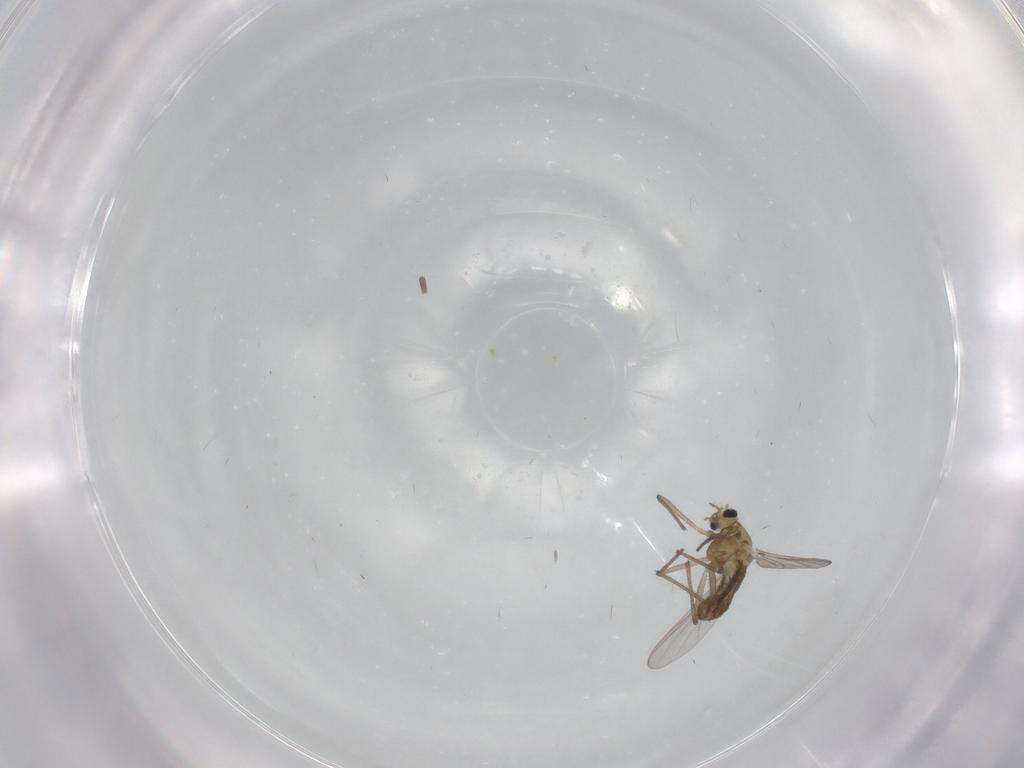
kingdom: Animalia
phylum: Arthropoda
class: Insecta
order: Diptera
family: Chironomidae
